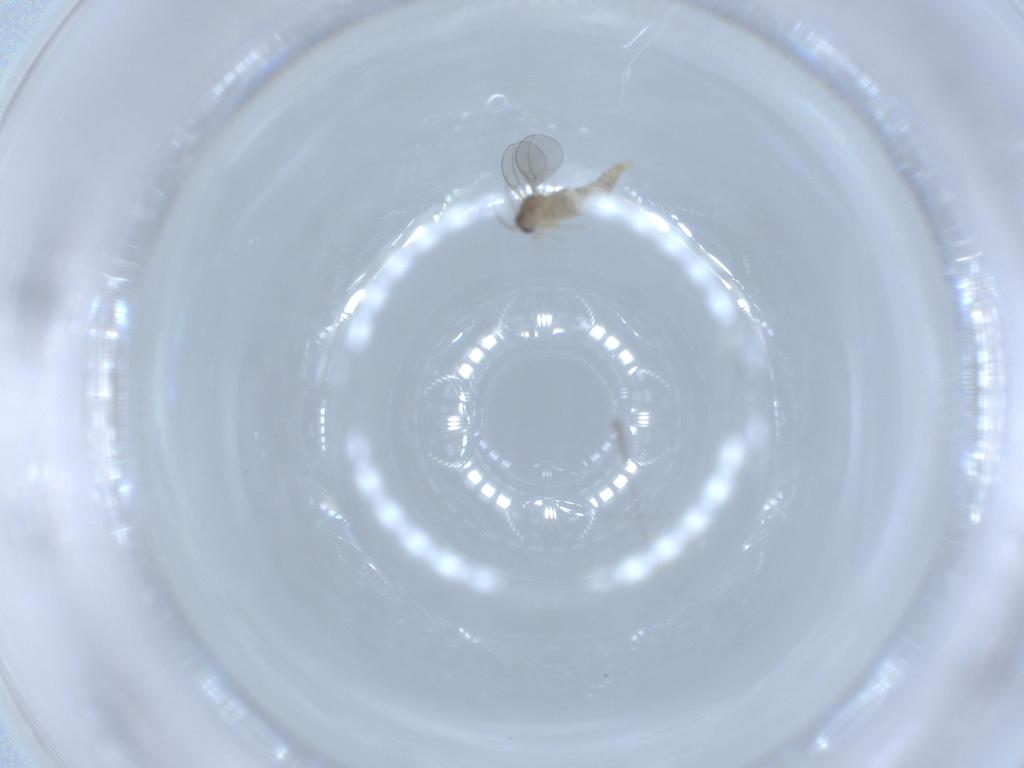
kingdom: Animalia
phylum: Arthropoda
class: Insecta
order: Diptera
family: Cecidomyiidae
